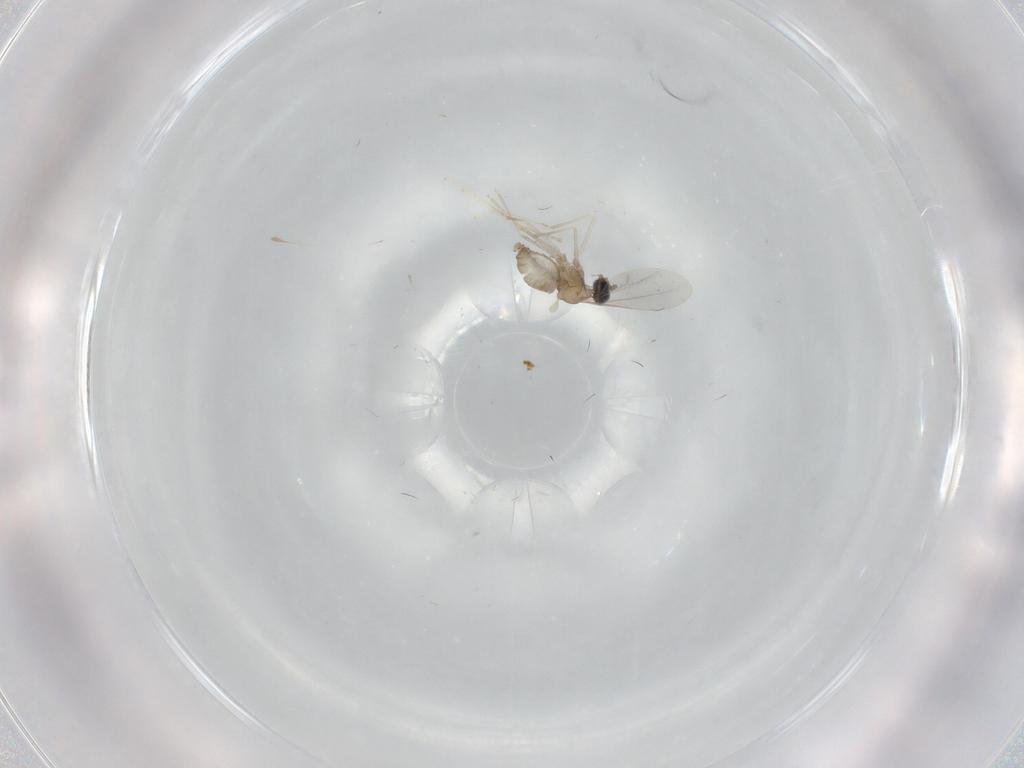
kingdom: Animalia
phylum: Arthropoda
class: Insecta
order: Diptera
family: Cecidomyiidae
